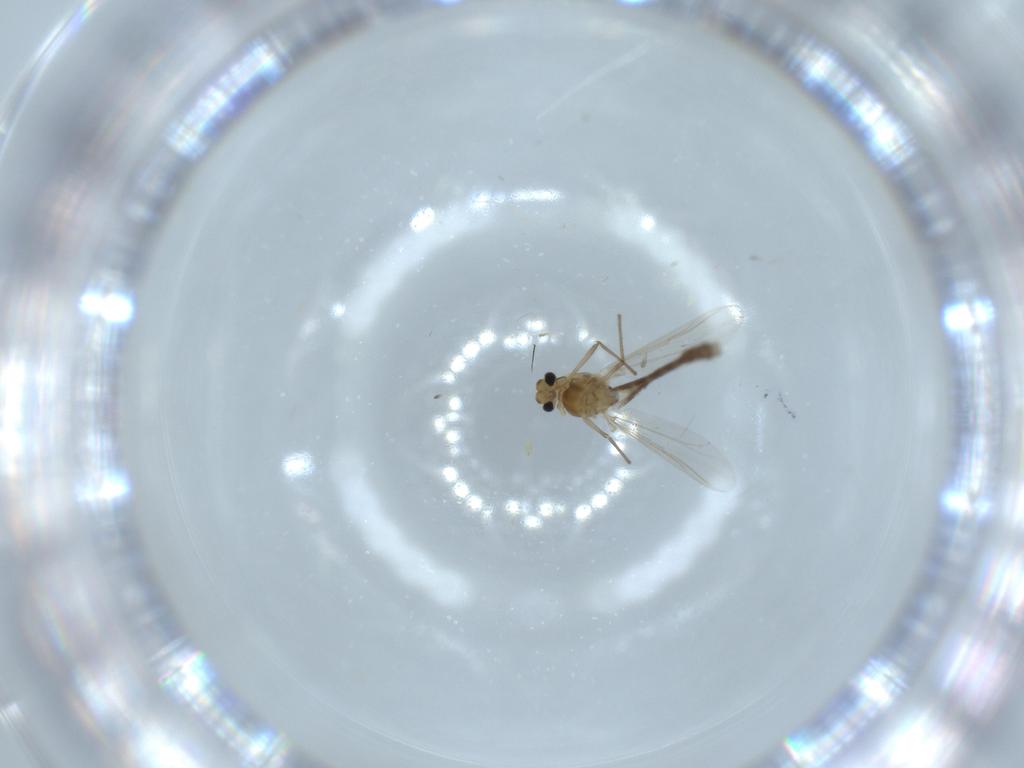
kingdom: Animalia
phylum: Arthropoda
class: Insecta
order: Diptera
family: Chironomidae
